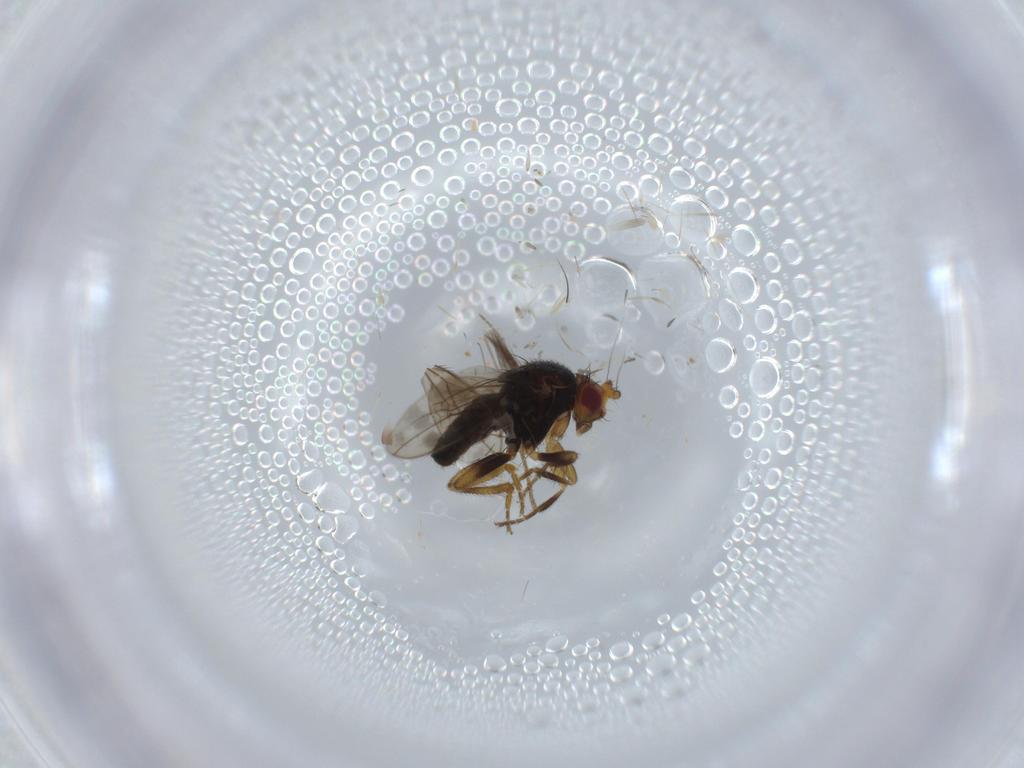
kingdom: Animalia
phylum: Arthropoda
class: Insecta
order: Diptera
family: Sphaeroceridae
